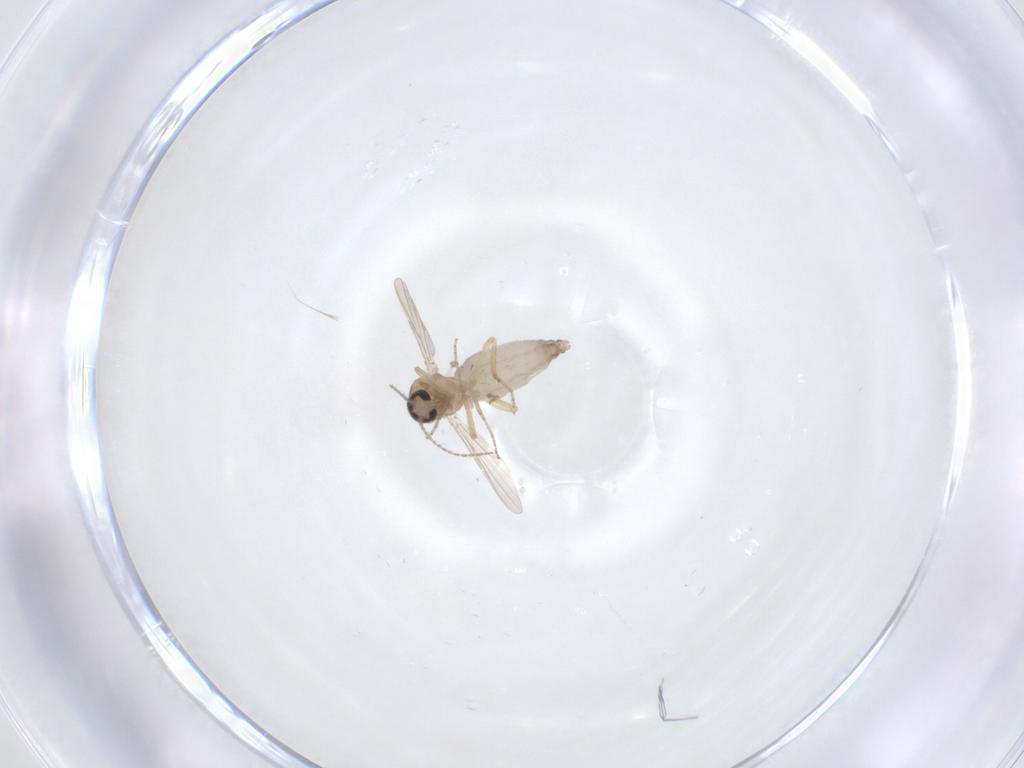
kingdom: Animalia
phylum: Arthropoda
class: Insecta
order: Diptera
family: Ceratopogonidae
